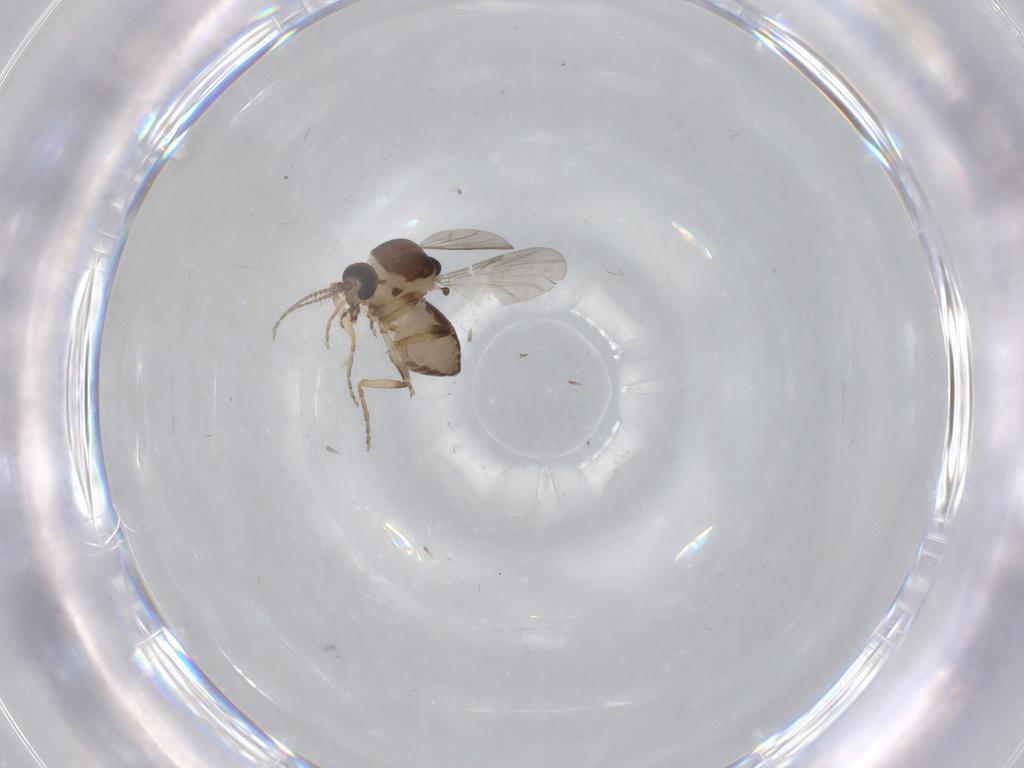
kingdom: Animalia
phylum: Arthropoda
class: Insecta
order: Diptera
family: Ceratopogonidae
